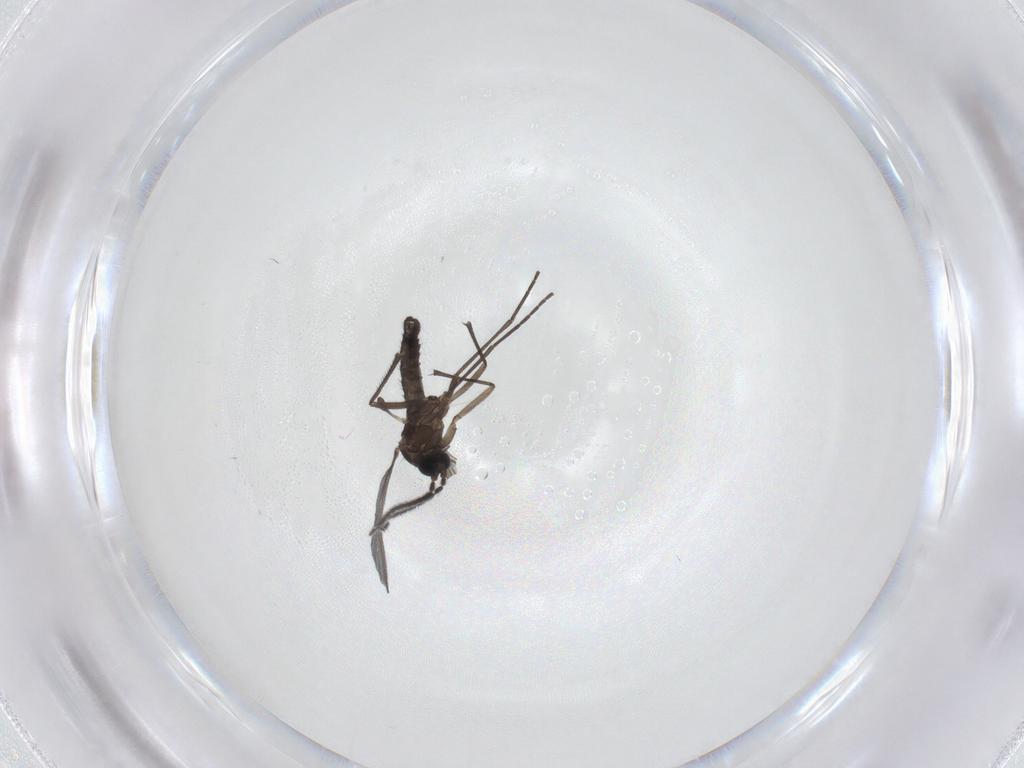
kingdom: Animalia
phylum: Arthropoda
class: Insecta
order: Diptera
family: Sciaridae
